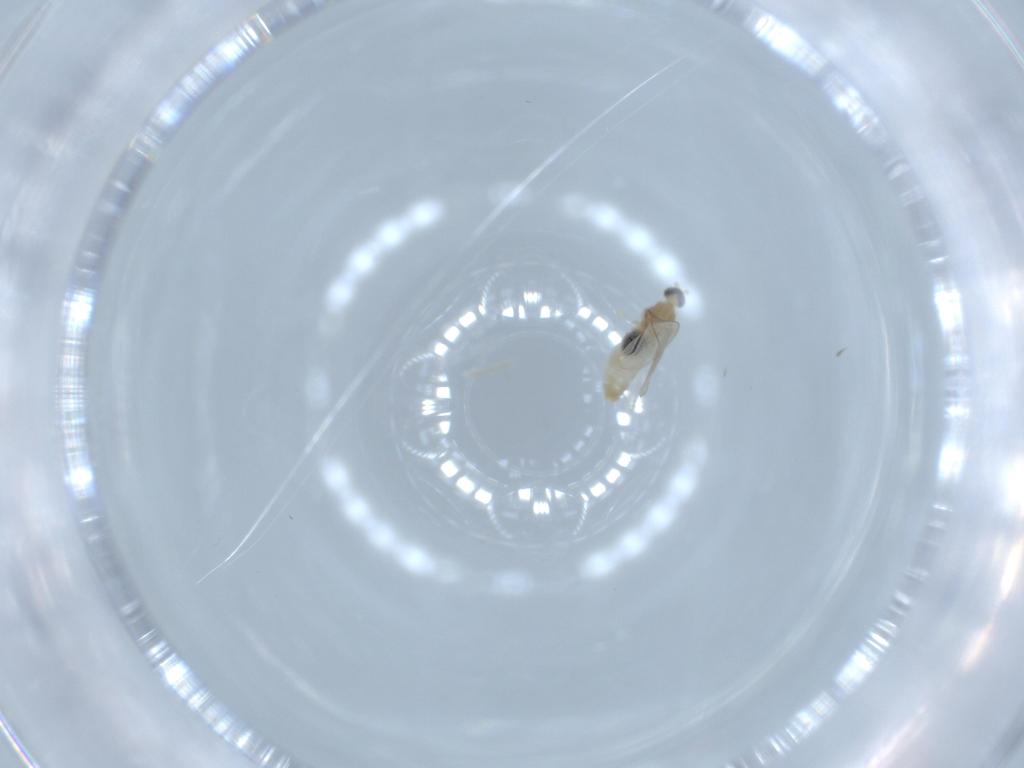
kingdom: Animalia
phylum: Arthropoda
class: Insecta
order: Diptera
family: Cecidomyiidae
